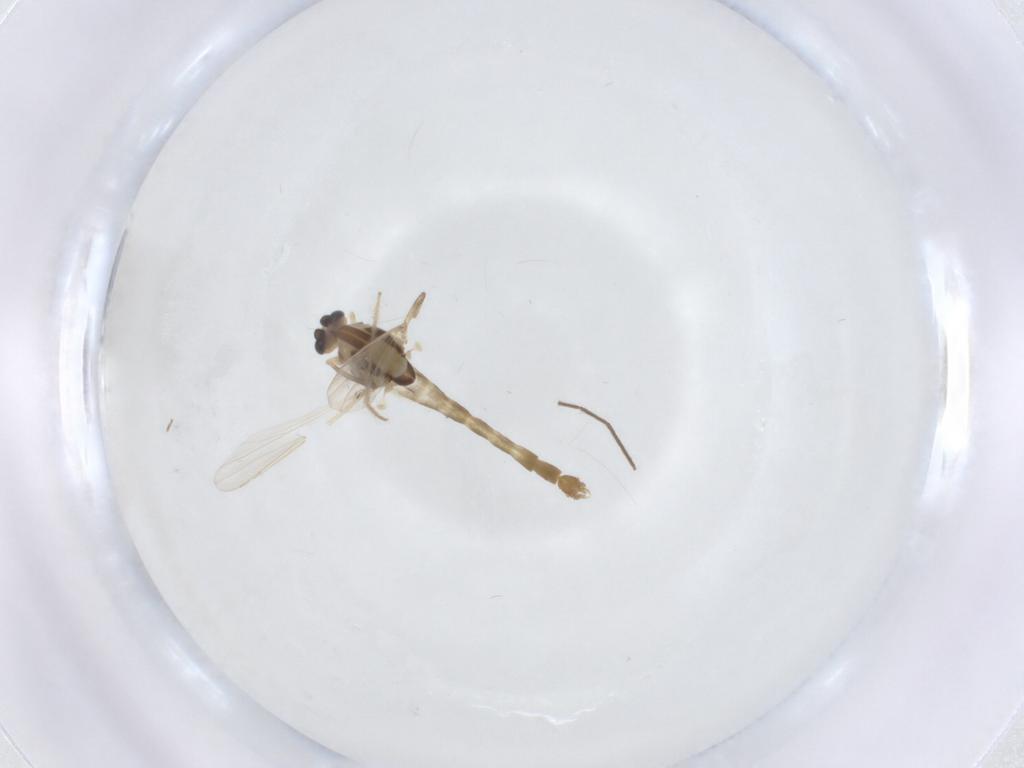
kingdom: Animalia
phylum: Arthropoda
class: Insecta
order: Diptera
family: Chironomidae
